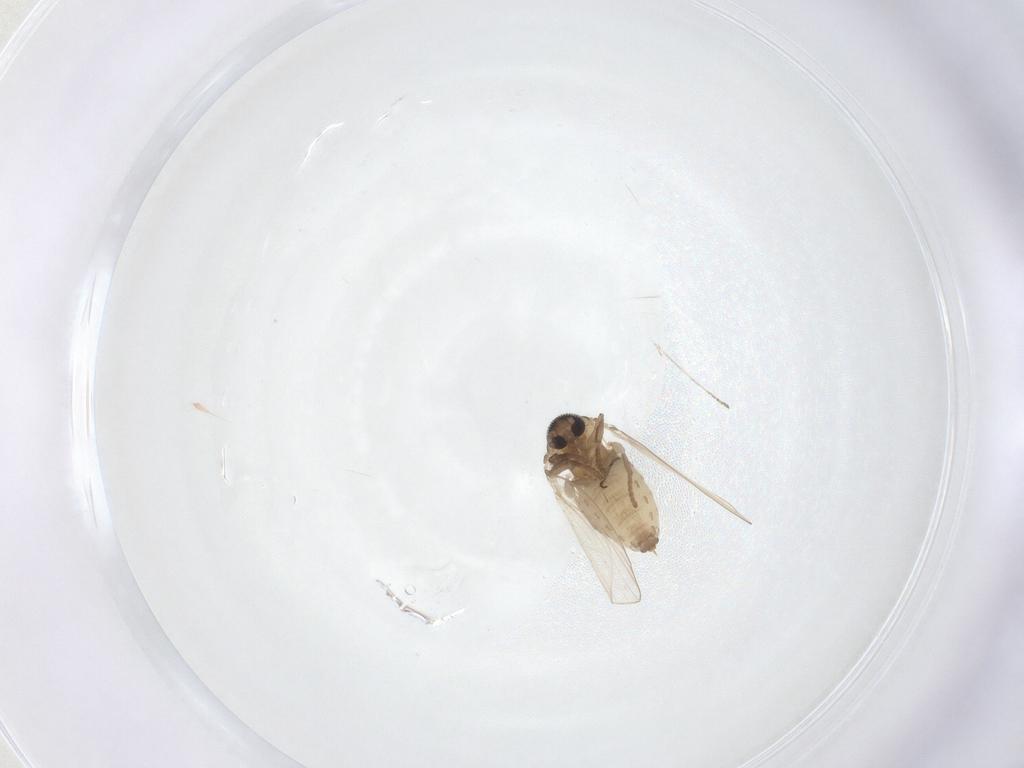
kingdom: Animalia
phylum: Arthropoda
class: Insecta
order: Diptera
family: Psychodidae
